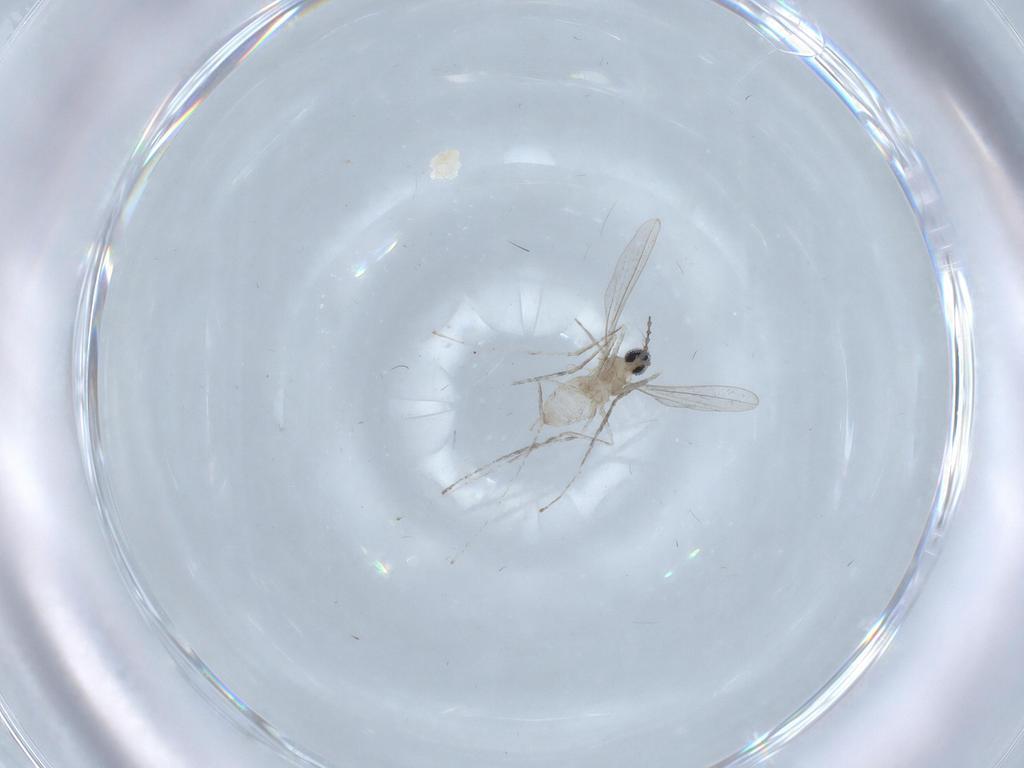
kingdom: Animalia
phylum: Arthropoda
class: Insecta
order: Diptera
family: Cecidomyiidae
